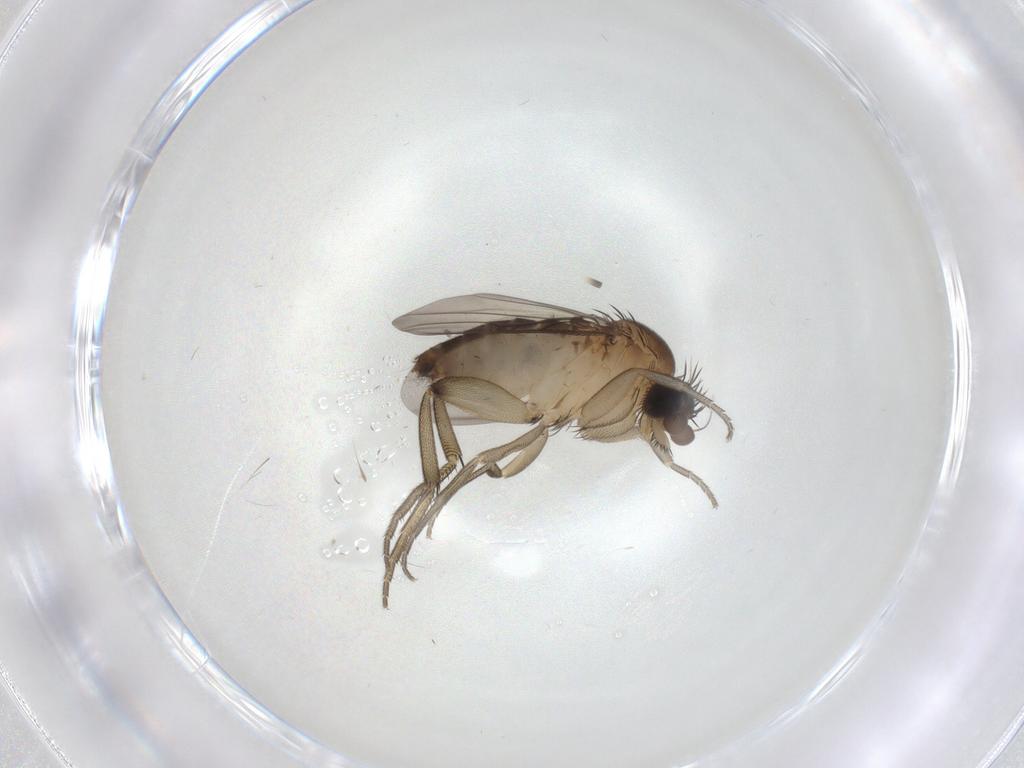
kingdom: Animalia
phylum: Arthropoda
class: Insecta
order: Diptera
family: Phoridae
